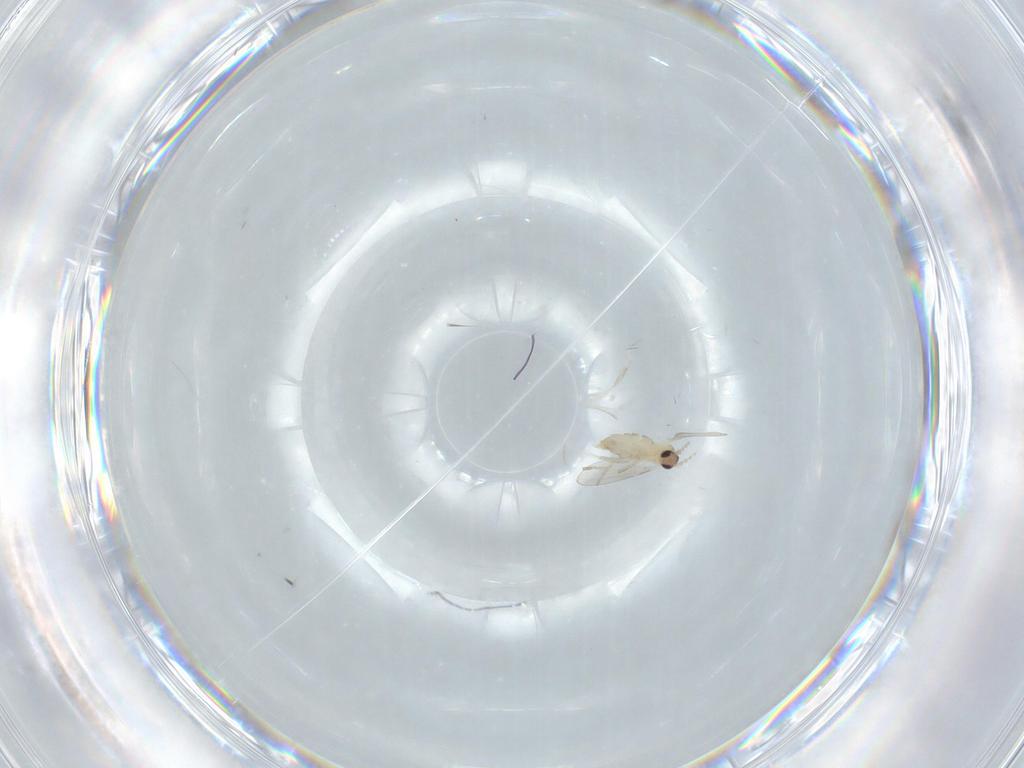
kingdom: Animalia
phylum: Arthropoda
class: Insecta
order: Diptera
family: Cecidomyiidae
